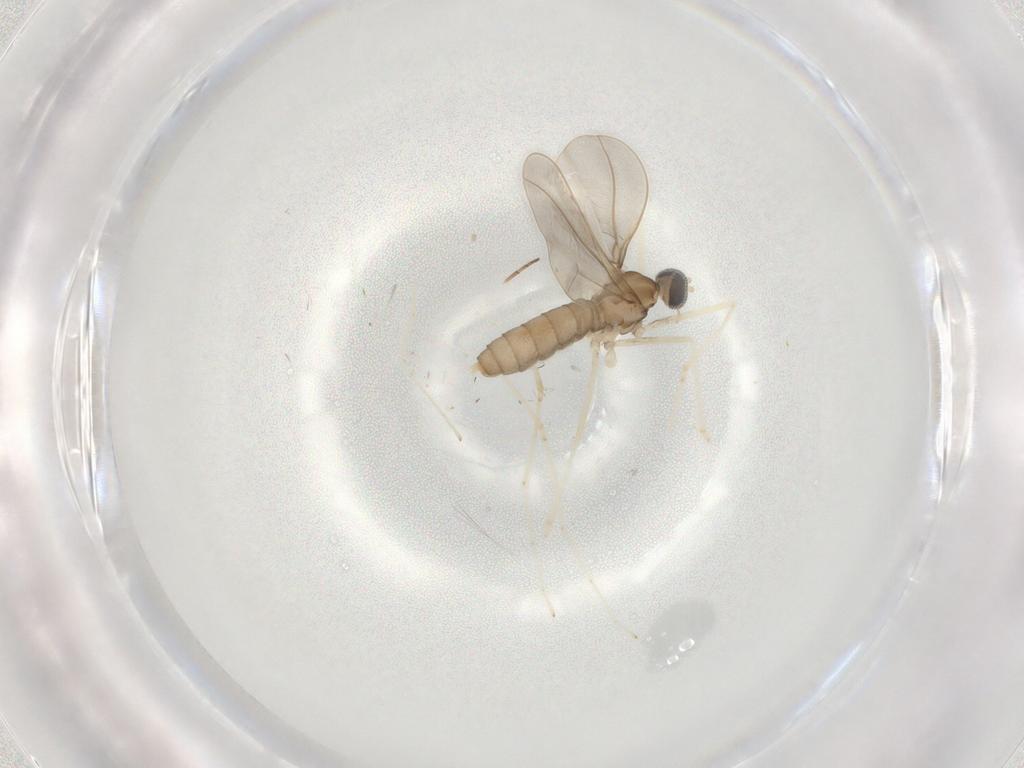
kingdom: Animalia
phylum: Arthropoda
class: Insecta
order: Diptera
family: Cecidomyiidae
